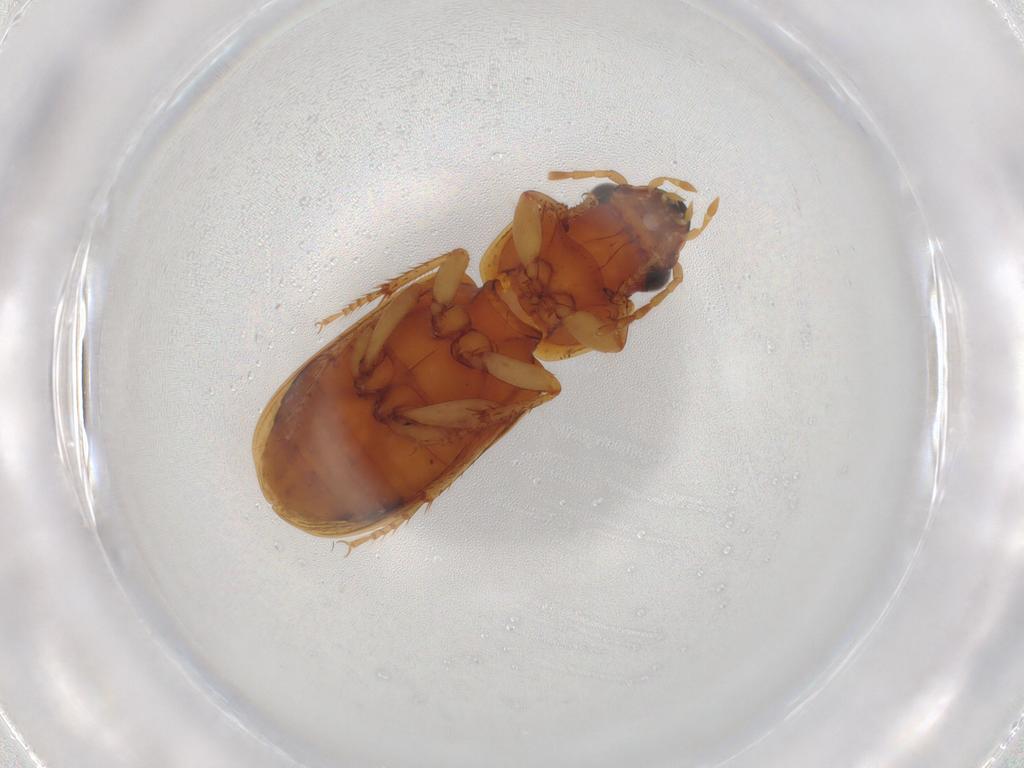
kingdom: Animalia
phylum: Arthropoda
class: Insecta
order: Coleoptera
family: Carabidae
